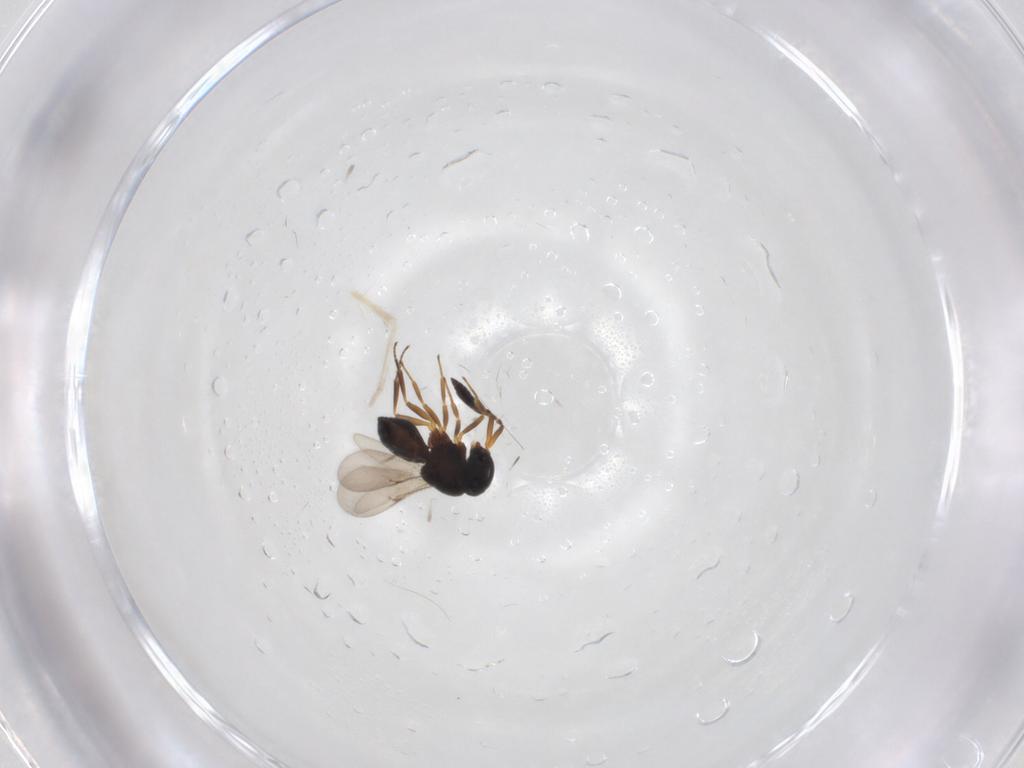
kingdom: Animalia
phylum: Arthropoda
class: Insecta
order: Hymenoptera
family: Scelionidae
